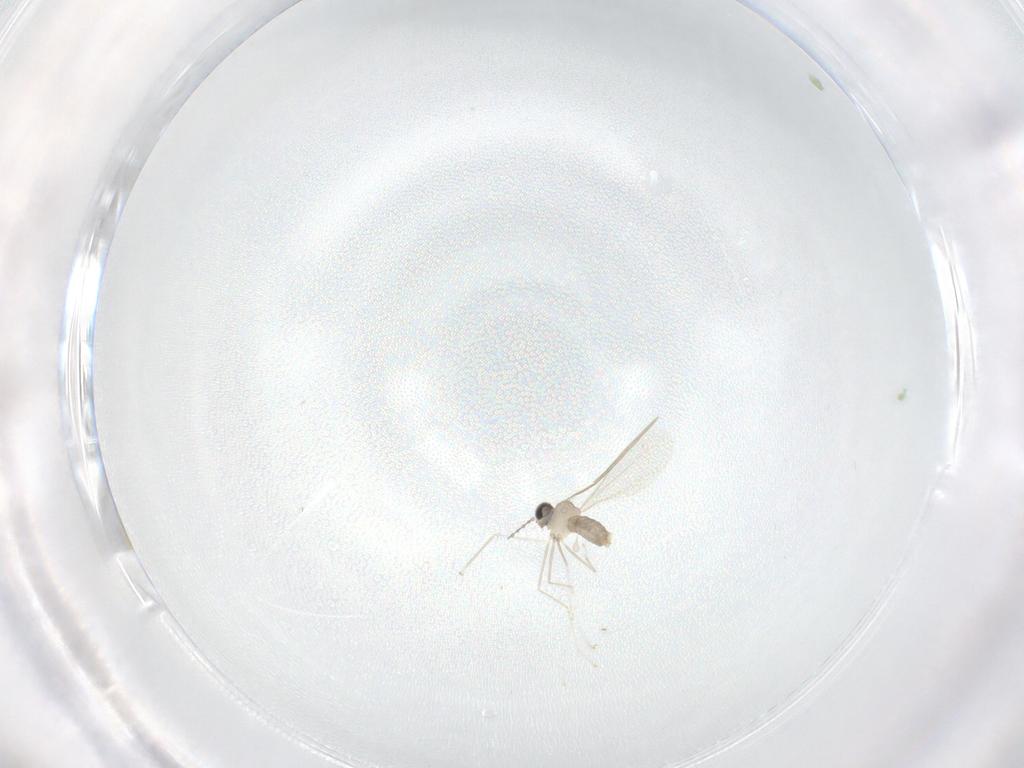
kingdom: Animalia
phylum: Arthropoda
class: Insecta
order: Diptera
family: Cecidomyiidae
